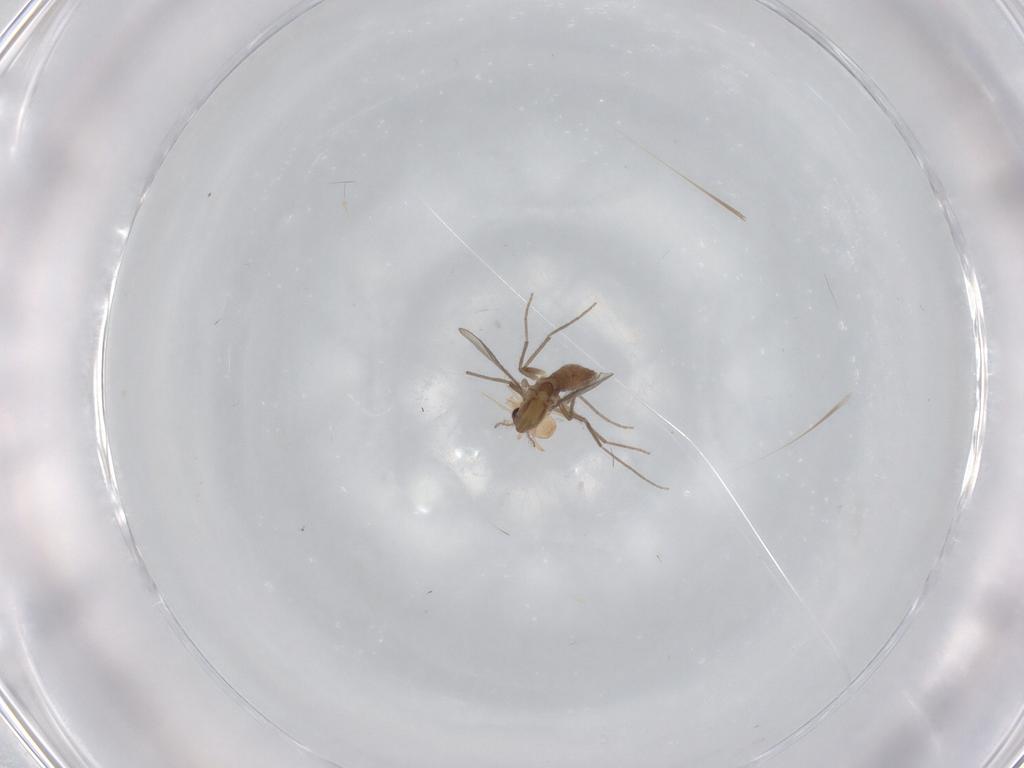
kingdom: Animalia
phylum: Arthropoda
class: Insecta
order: Diptera
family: Chironomidae
